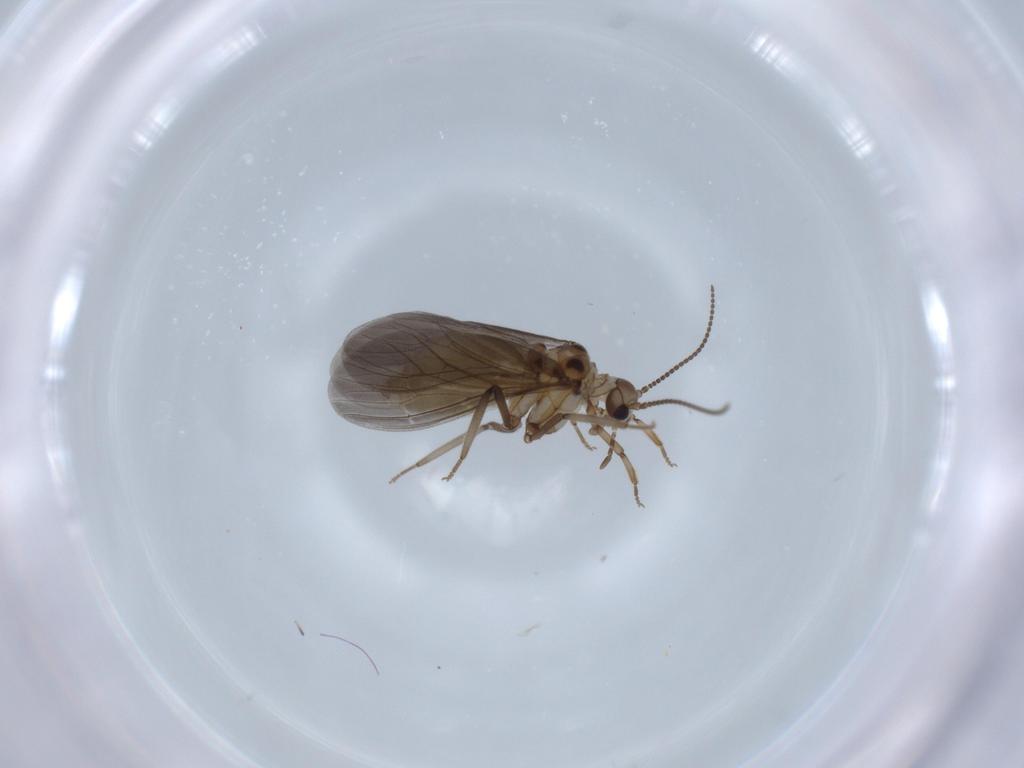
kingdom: Animalia
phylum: Arthropoda
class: Insecta
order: Neuroptera
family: Coniopterygidae
